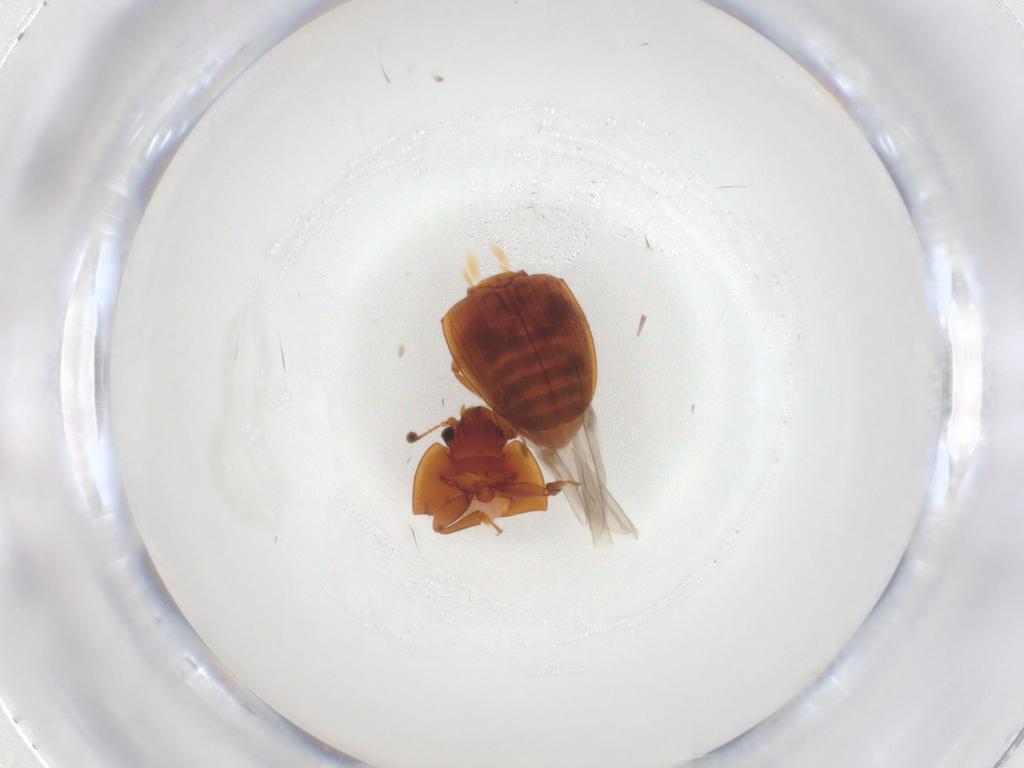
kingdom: Animalia
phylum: Arthropoda
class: Insecta
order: Coleoptera
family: Nitidulidae
